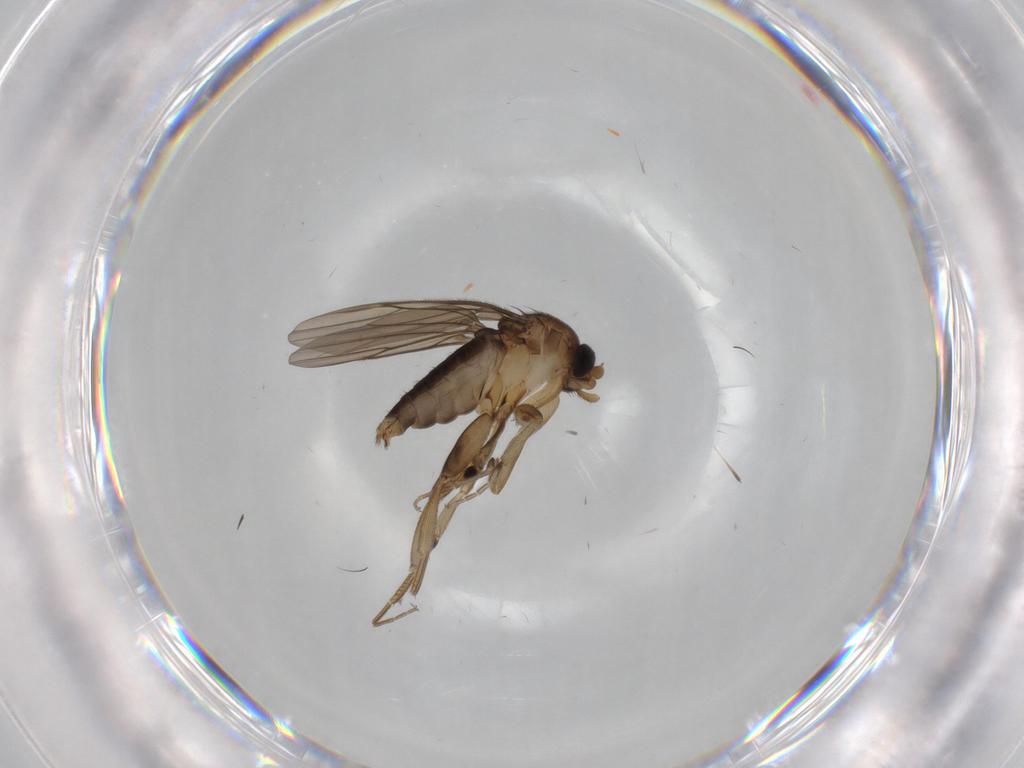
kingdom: Animalia
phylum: Arthropoda
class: Insecta
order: Diptera
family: Phoridae
